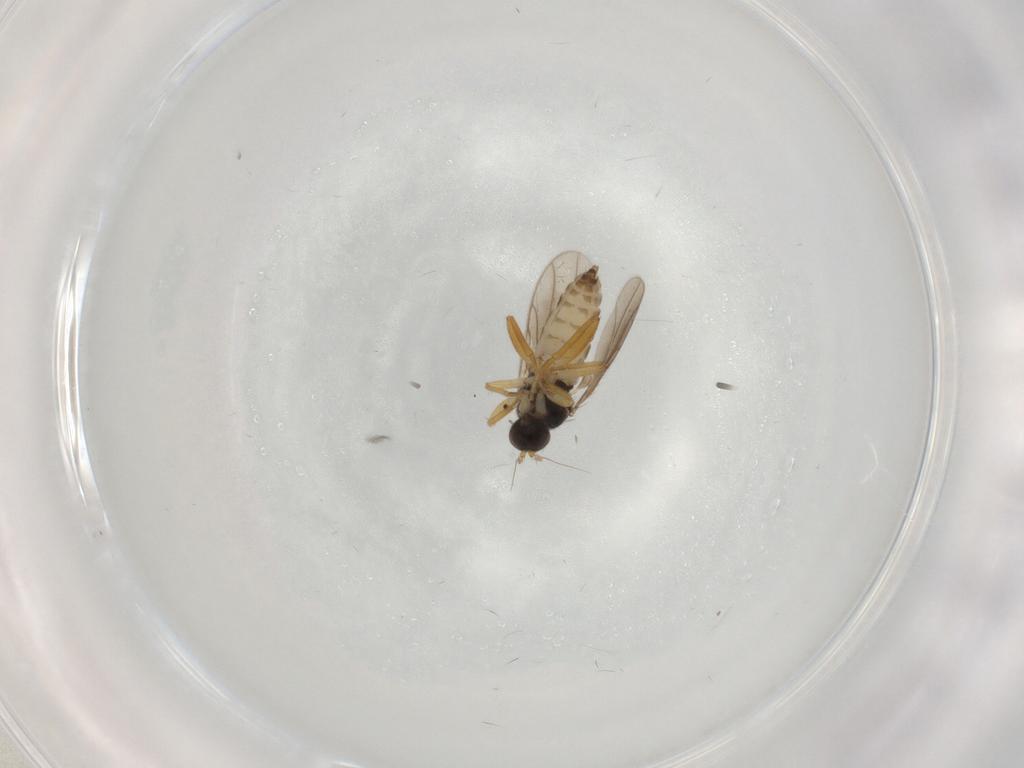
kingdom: Animalia
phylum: Arthropoda
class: Insecta
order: Diptera
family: Hybotidae
